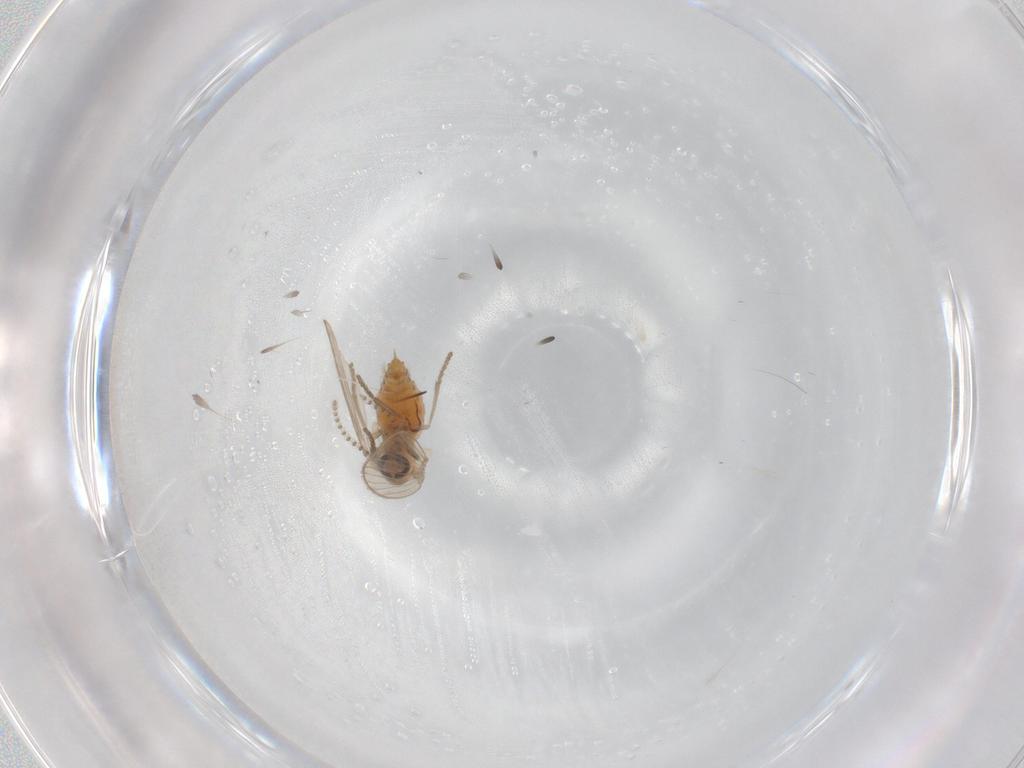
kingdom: Animalia
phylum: Arthropoda
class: Insecta
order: Diptera
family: Psychodidae
